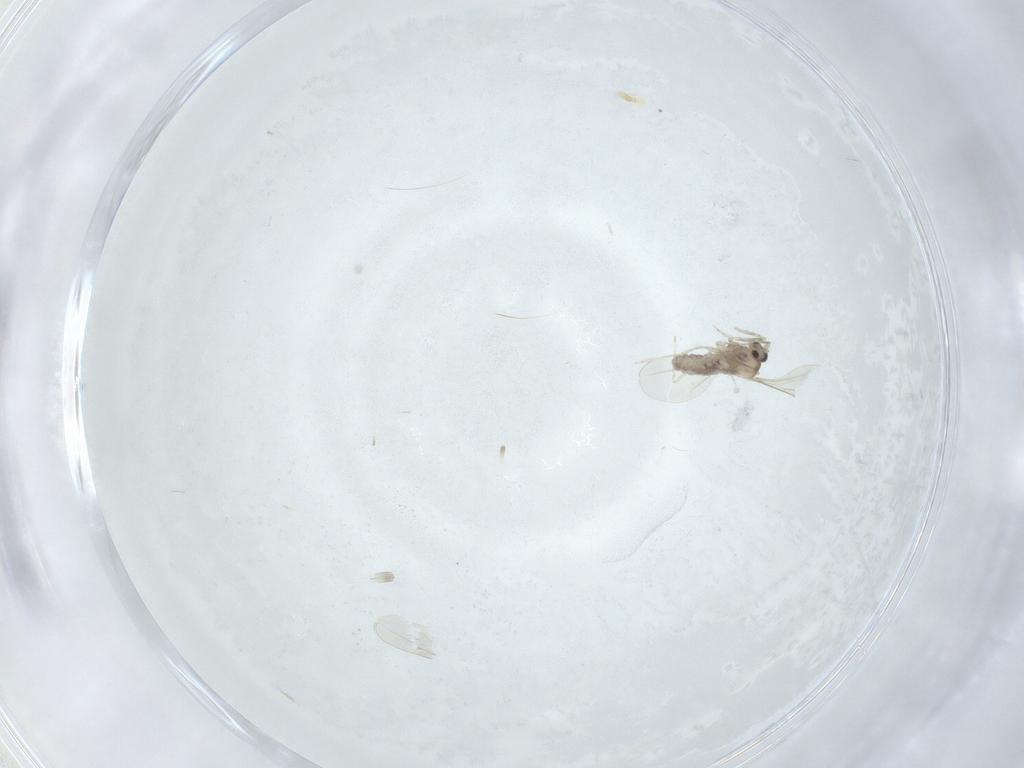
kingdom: Animalia
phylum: Arthropoda
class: Insecta
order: Diptera
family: Cecidomyiidae
